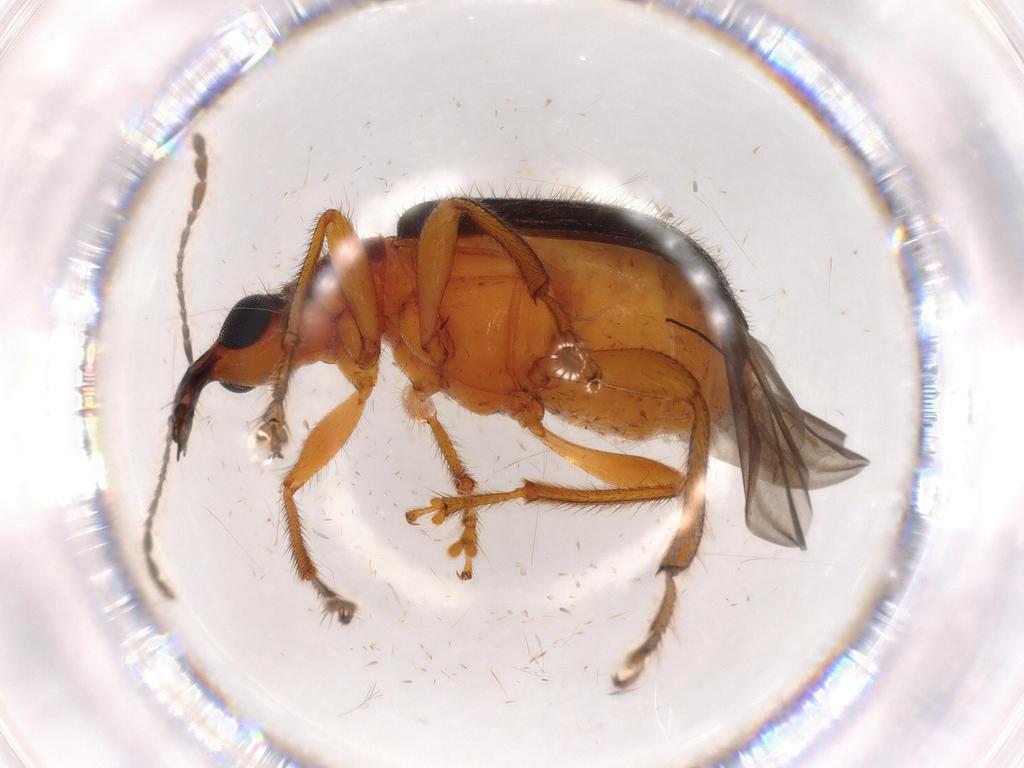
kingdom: Animalia
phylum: Arthropoda
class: Insecta
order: Coleoptera
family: Attelabidae
